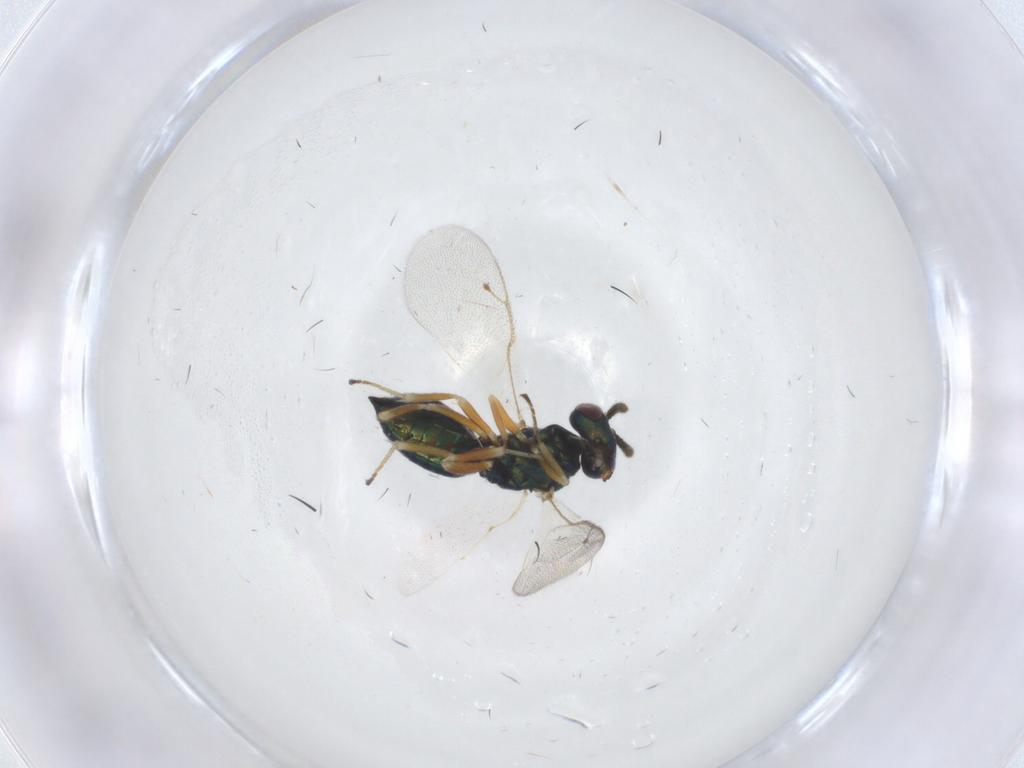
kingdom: Animalia
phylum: Arthropoda
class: Insecta
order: Hymenoptera
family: Pteromalidae
